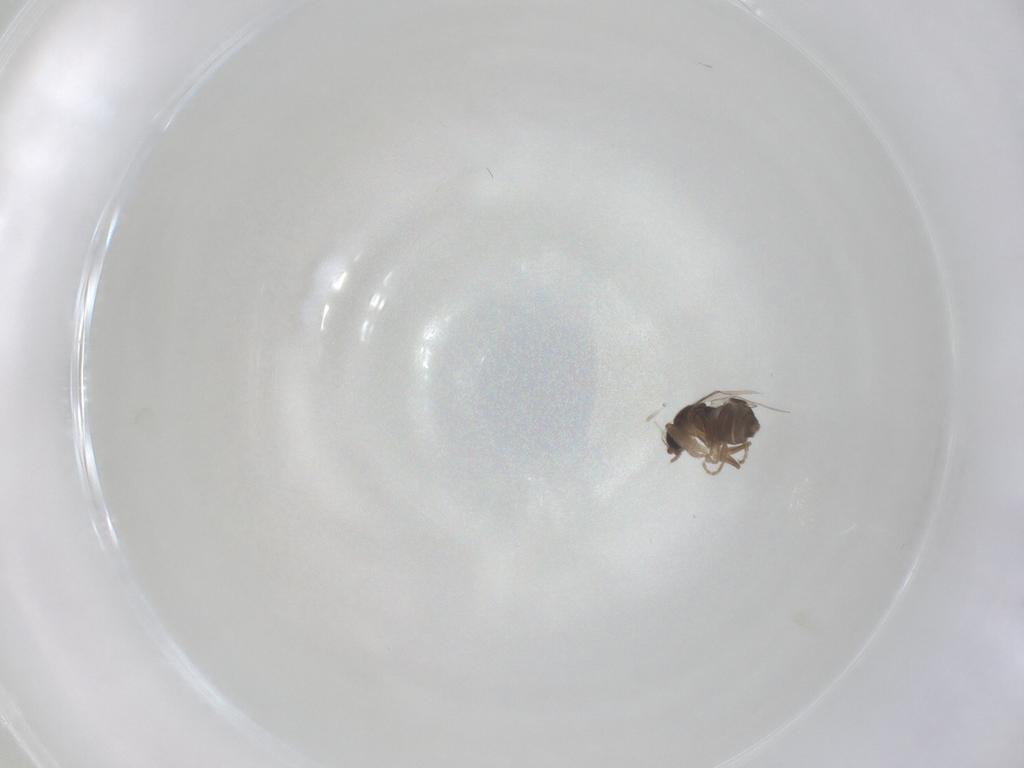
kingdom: Animalia
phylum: Arthropoda
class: Insecta
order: Diptera
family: Phoridae
